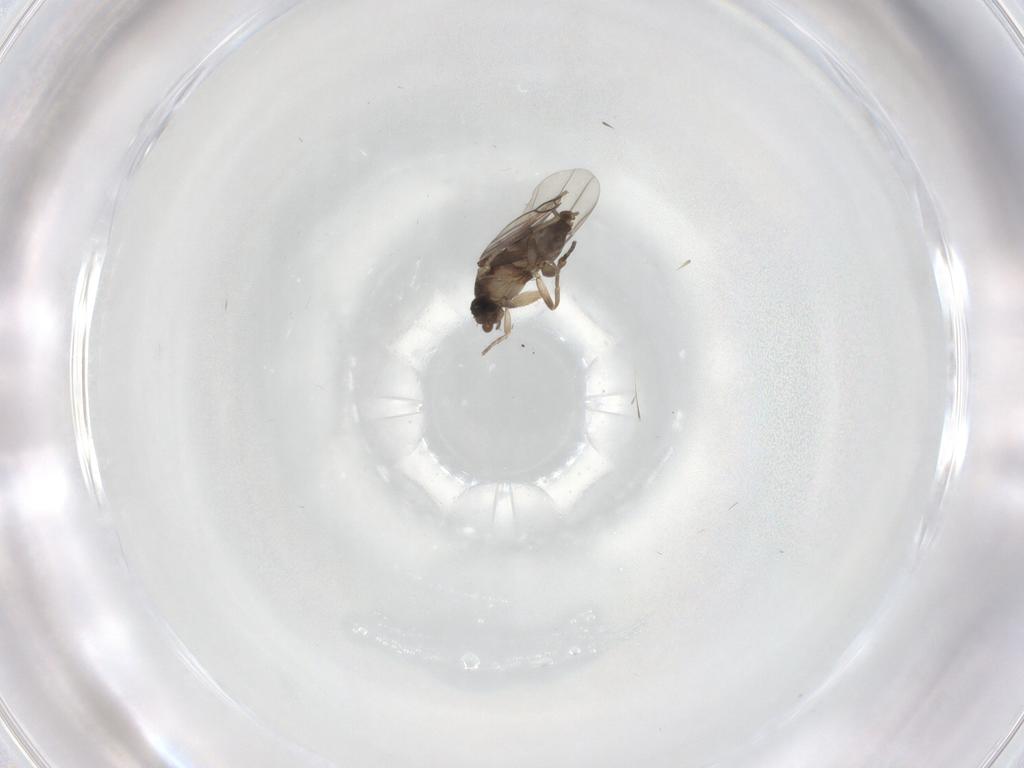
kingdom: Animalia
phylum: Arthropoda
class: Insecta
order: Diptera
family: Phoridae
